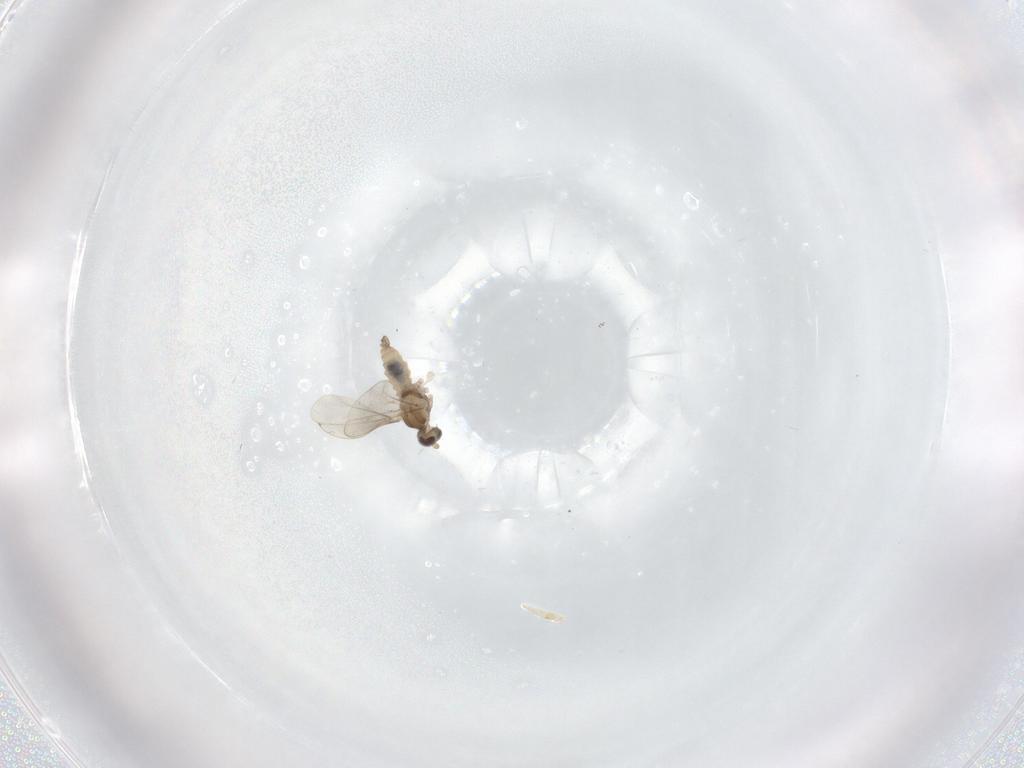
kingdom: Animalia
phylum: Arthropoda
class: Insecta
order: Diptera
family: Cecidomyiidae
